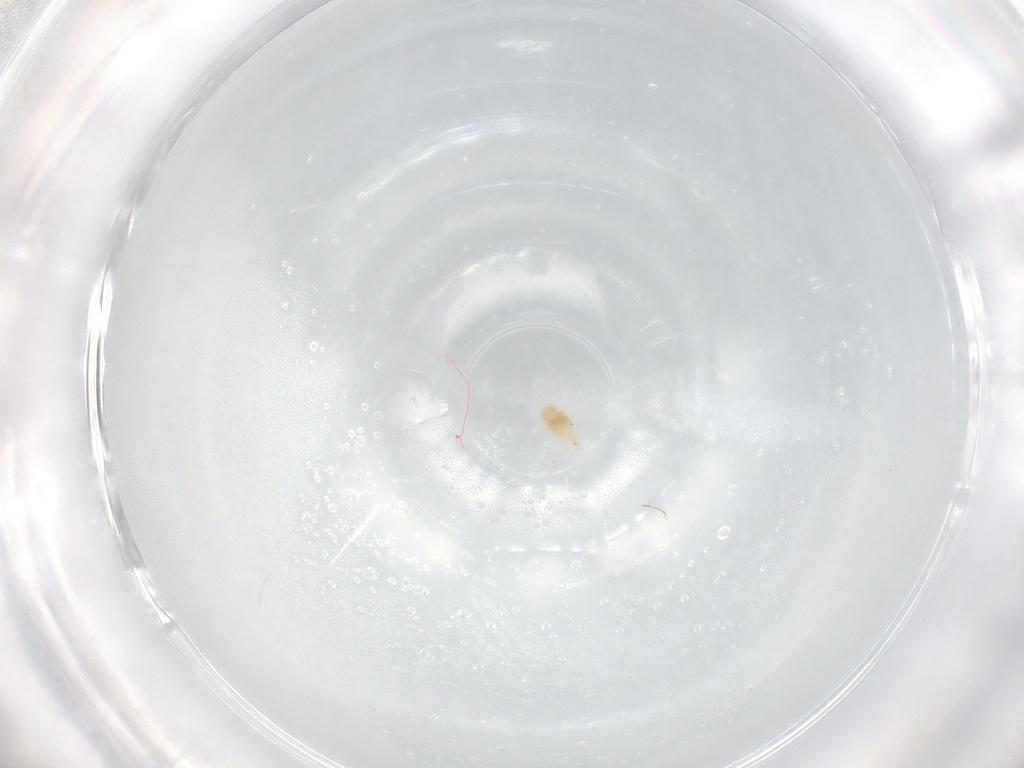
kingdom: Animalia
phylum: Arthropoda
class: Arachnida
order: Trombidiformes
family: Bdellidae
